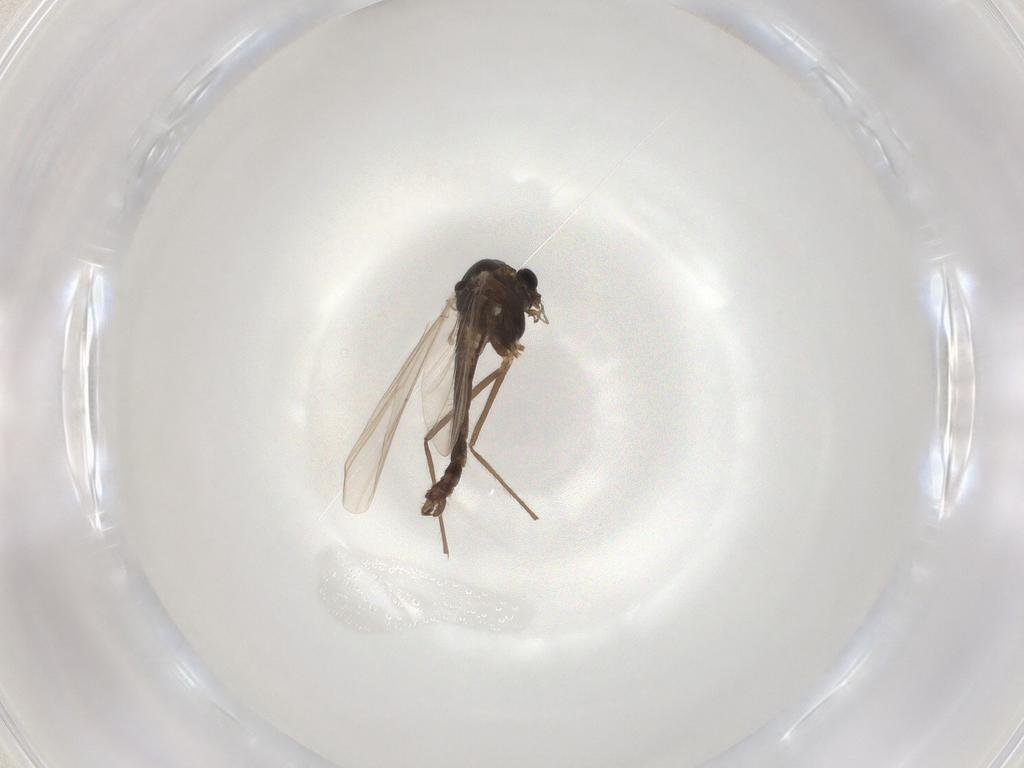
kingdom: Animalia
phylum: Arthropoda
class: Insecta
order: Diptera
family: Chironomidae
